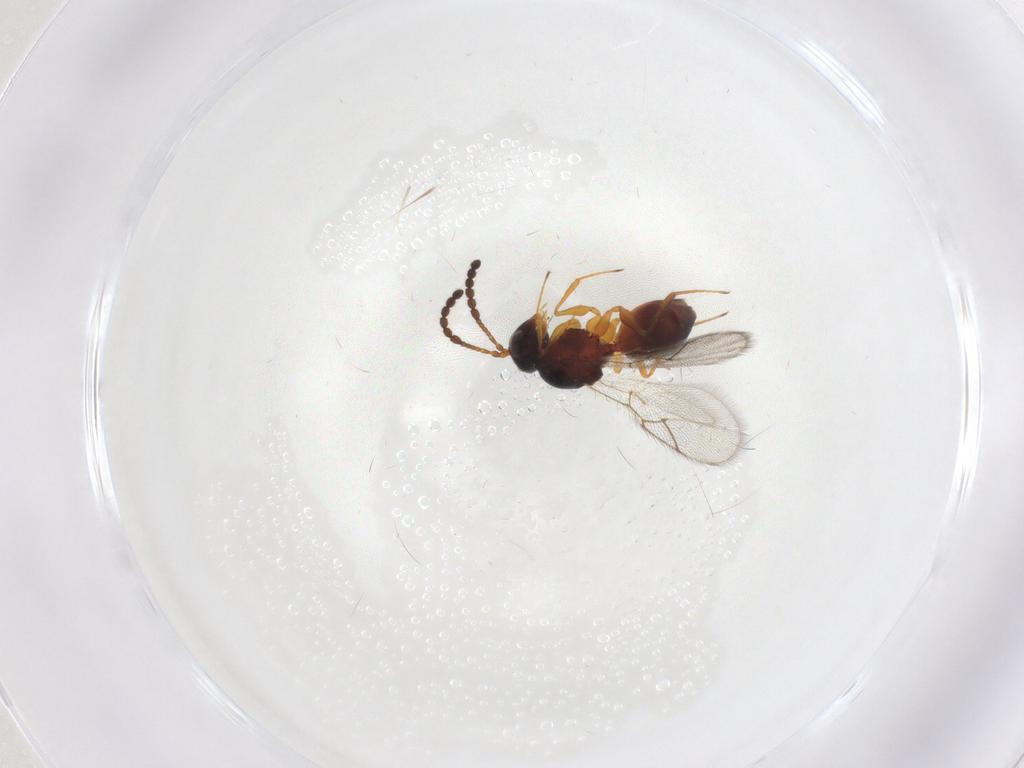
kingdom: Animalia
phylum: Arthropoda
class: Insecta
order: Hymenoptera
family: Figitidae
